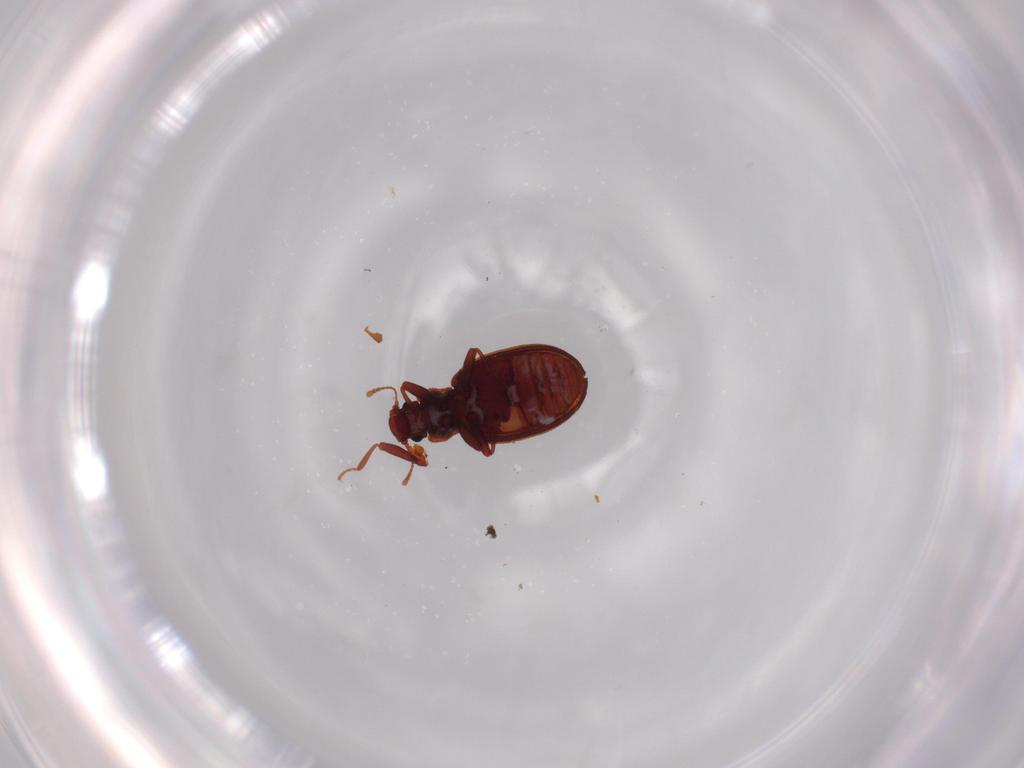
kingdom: Animalia
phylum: Arthropoda
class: Insecta
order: Coleoptera
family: Latridiidae
